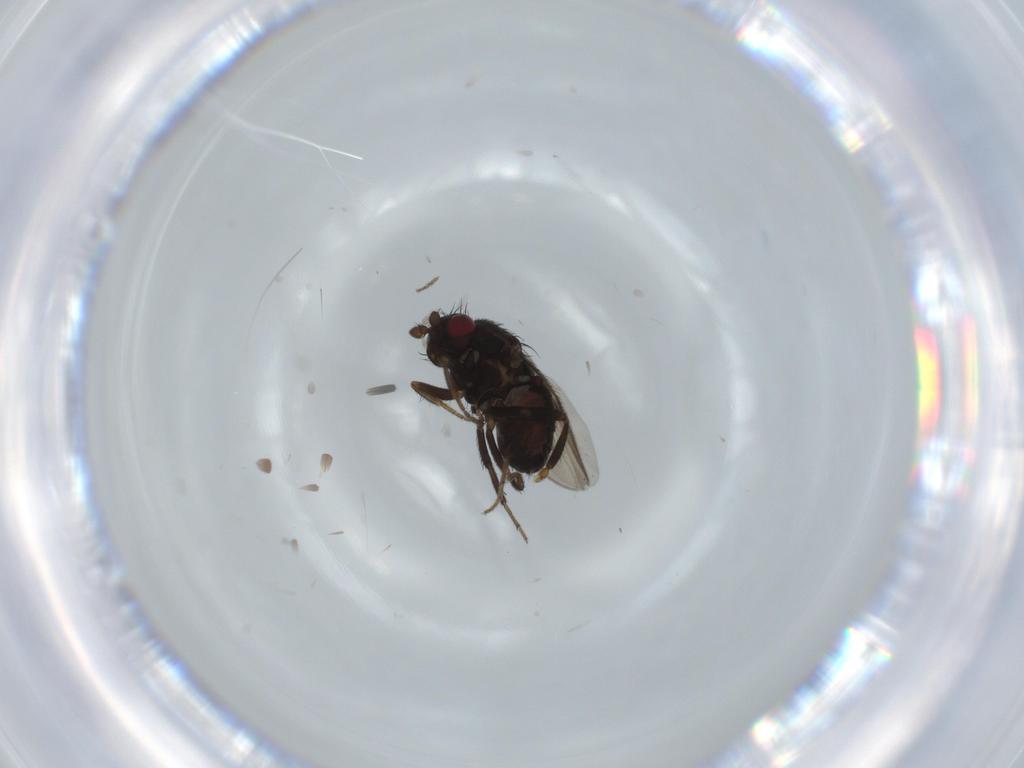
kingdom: Animalia
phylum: Arthropoda
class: Insecta
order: Diptera
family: Sphaeroceridae
